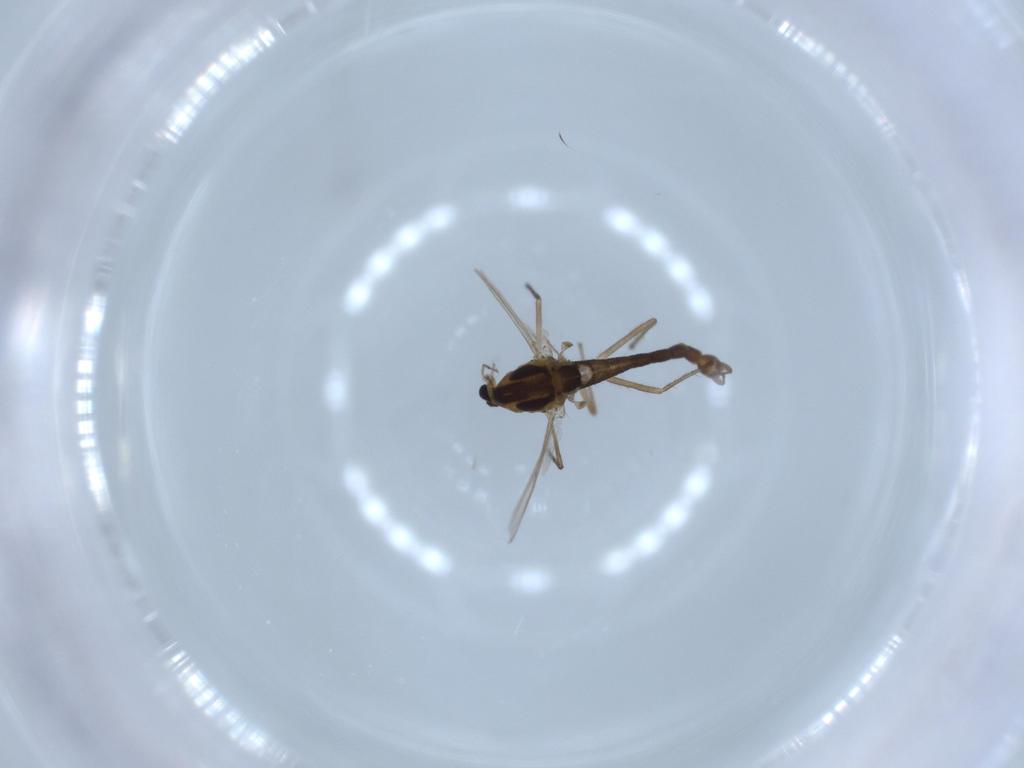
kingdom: Animalia
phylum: Arthropoda
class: Insecta
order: Diptera
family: Chironomidae
